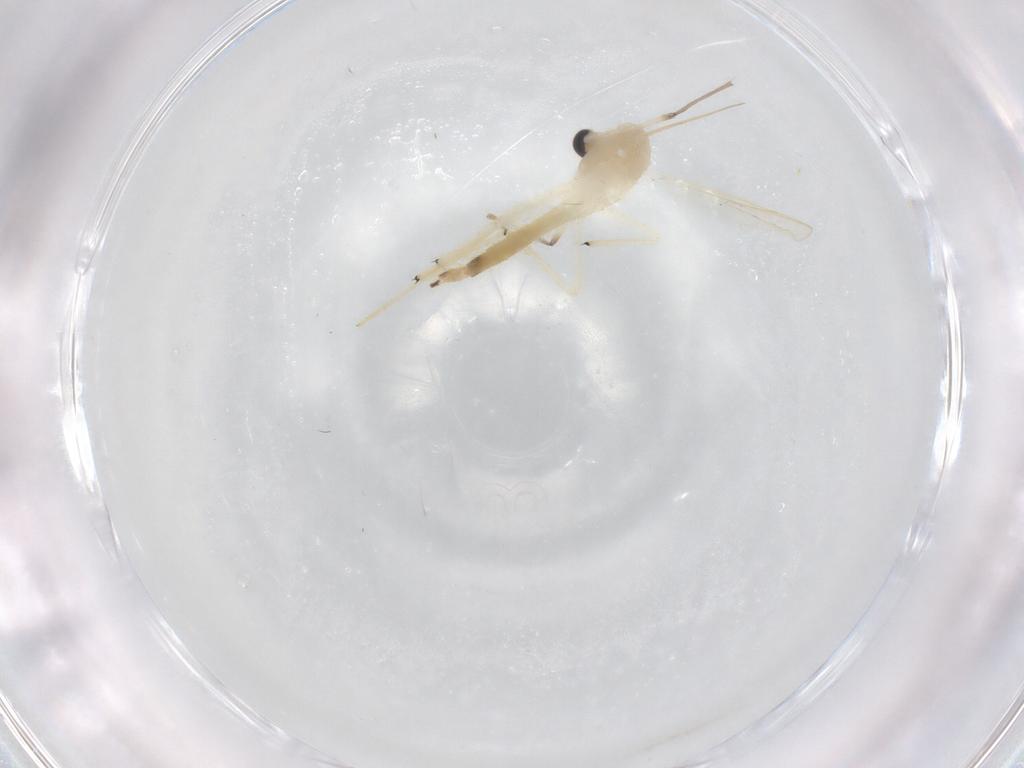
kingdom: Animalia
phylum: Arthropoda
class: Insecta
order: Diptera
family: Chironomidae
